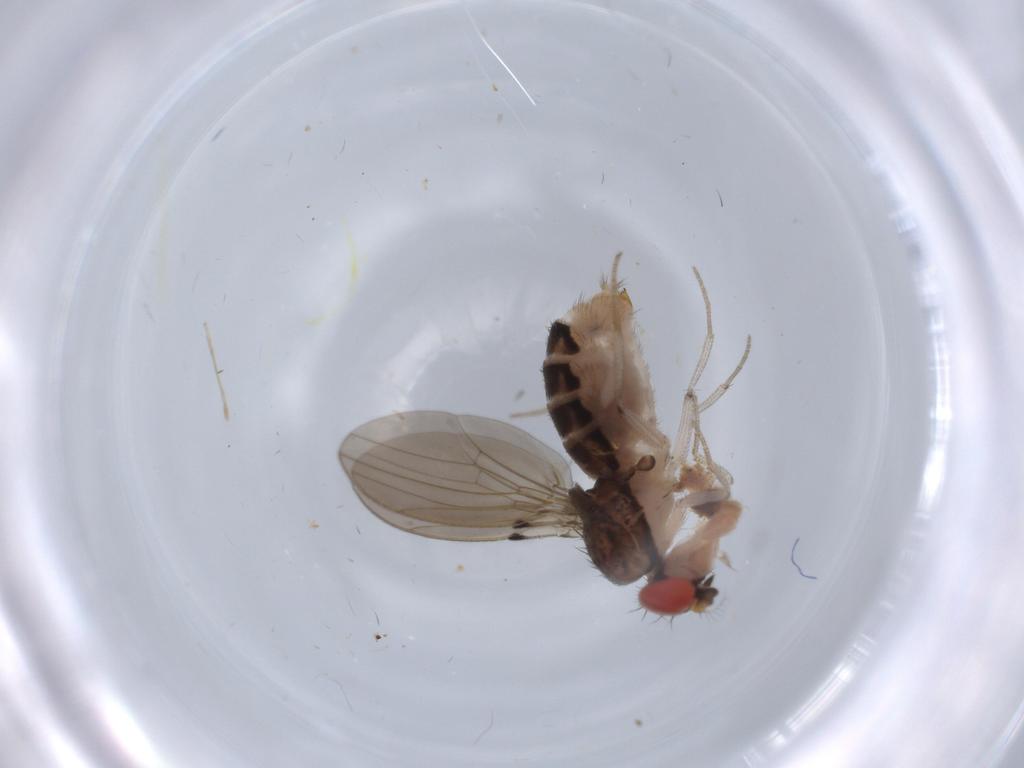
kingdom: Animalia
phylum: Arthropoda
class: Insecta
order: Diptera
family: Drosophilidae
